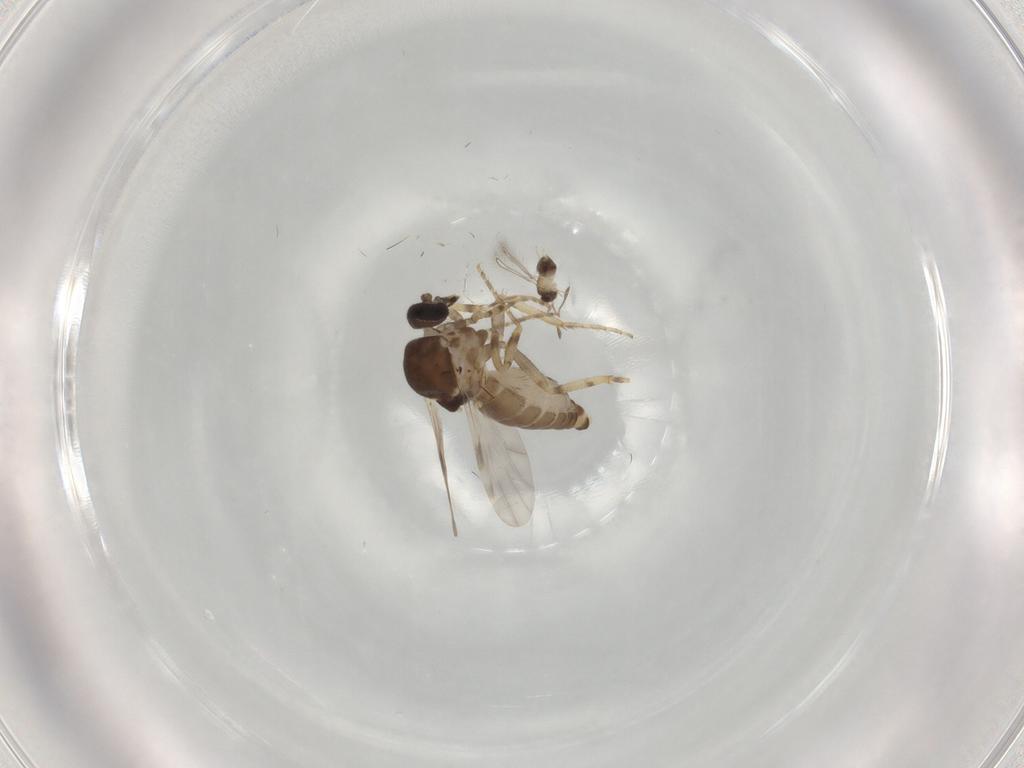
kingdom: Animalia
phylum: Arthropoda
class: Insecta
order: Diptera
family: Ceratopogonidae
